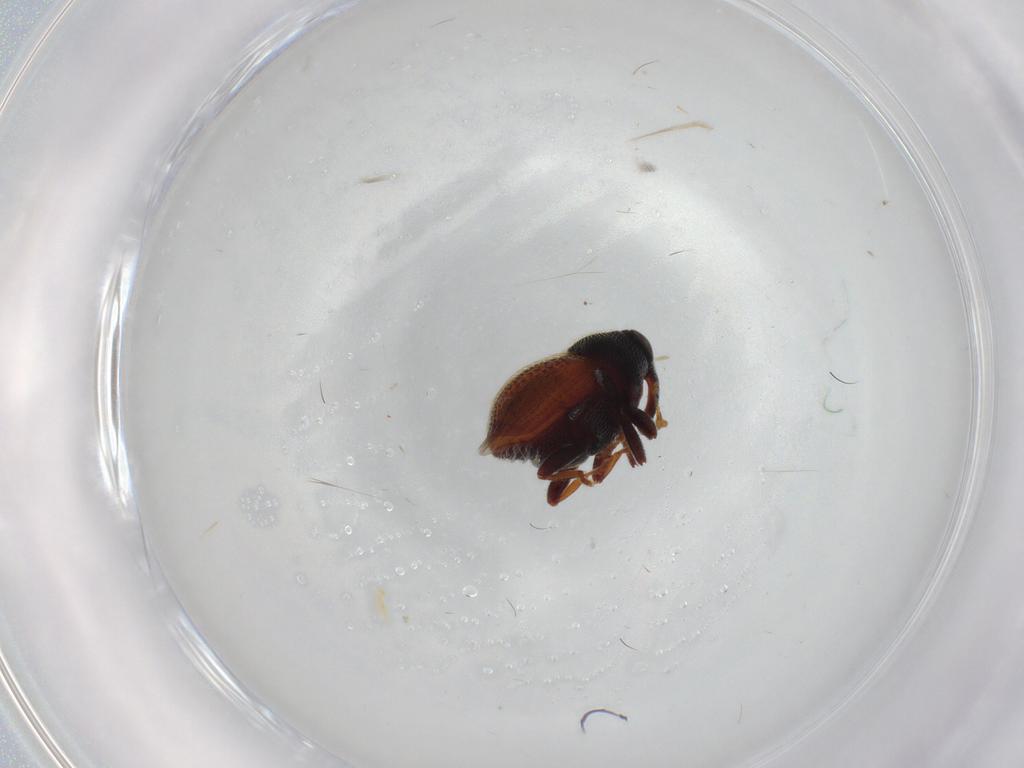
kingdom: Animalia
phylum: Arthropoda
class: Insecta
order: Coleoptera
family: Curculionidae
